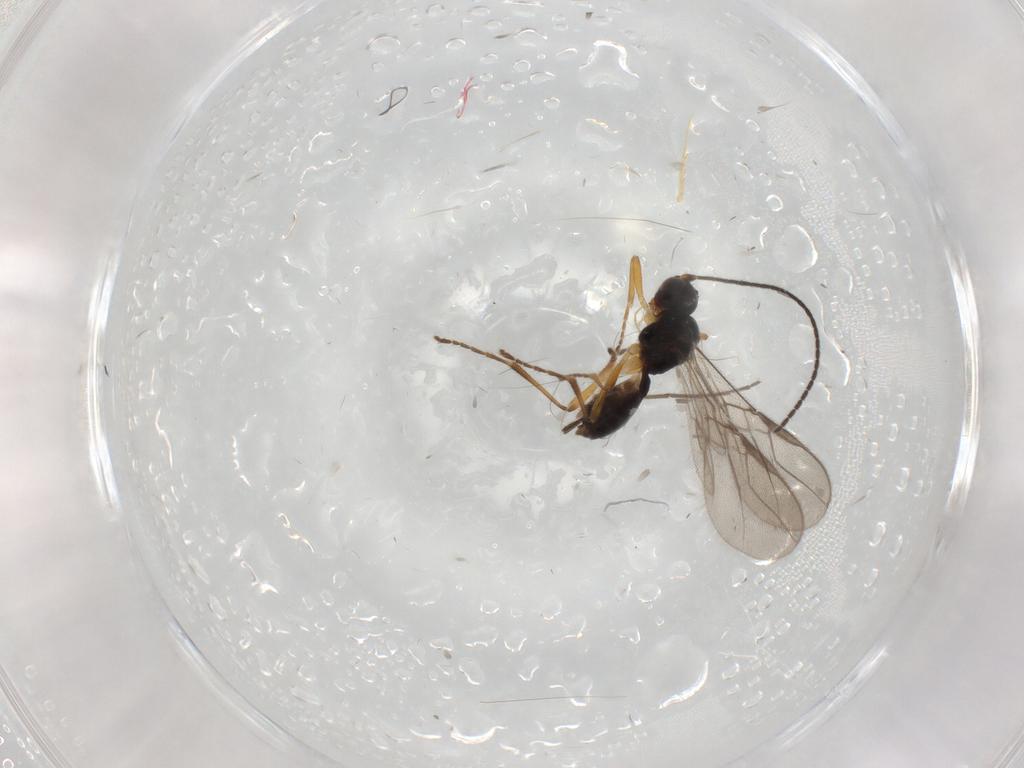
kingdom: Animalia
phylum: Arthropoda
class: Insecta
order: Hymenoptera
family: Braconidae
